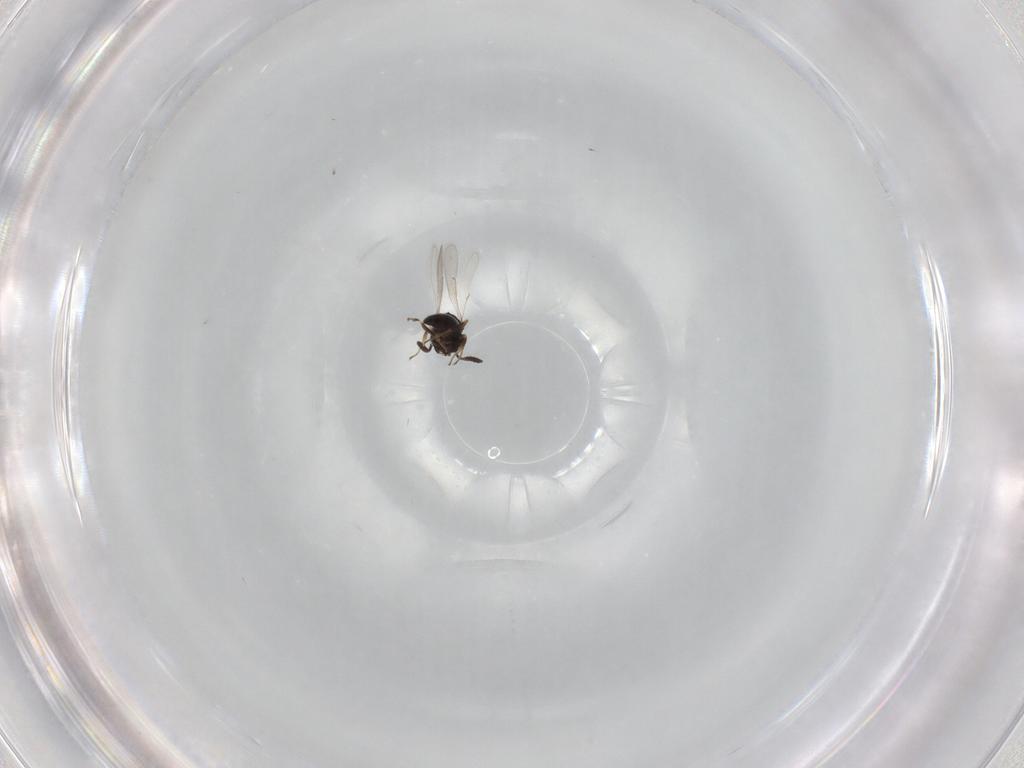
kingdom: Animalia
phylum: Arthropoda
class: Insecta
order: Hymenoptera
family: Scelionidae
